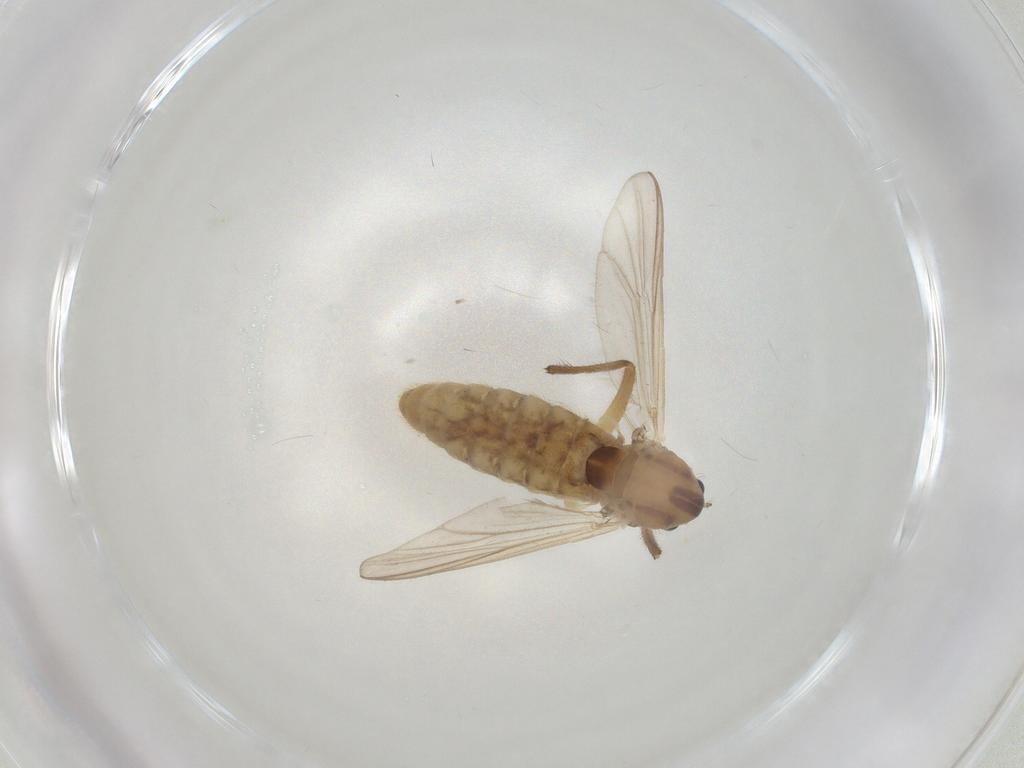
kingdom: Animalia
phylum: Arthropoda
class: Insecta
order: Diptera
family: Chironomidae
